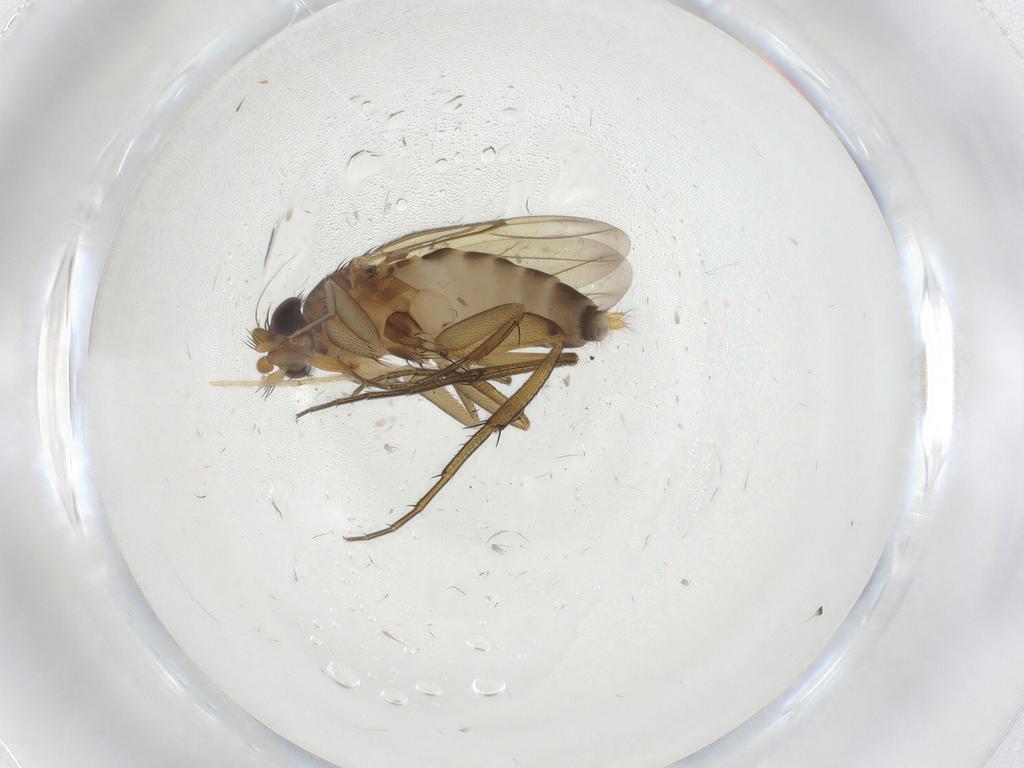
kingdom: Animalia
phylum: Arthropoda
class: Insecta
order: Diptera
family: Phoridae
